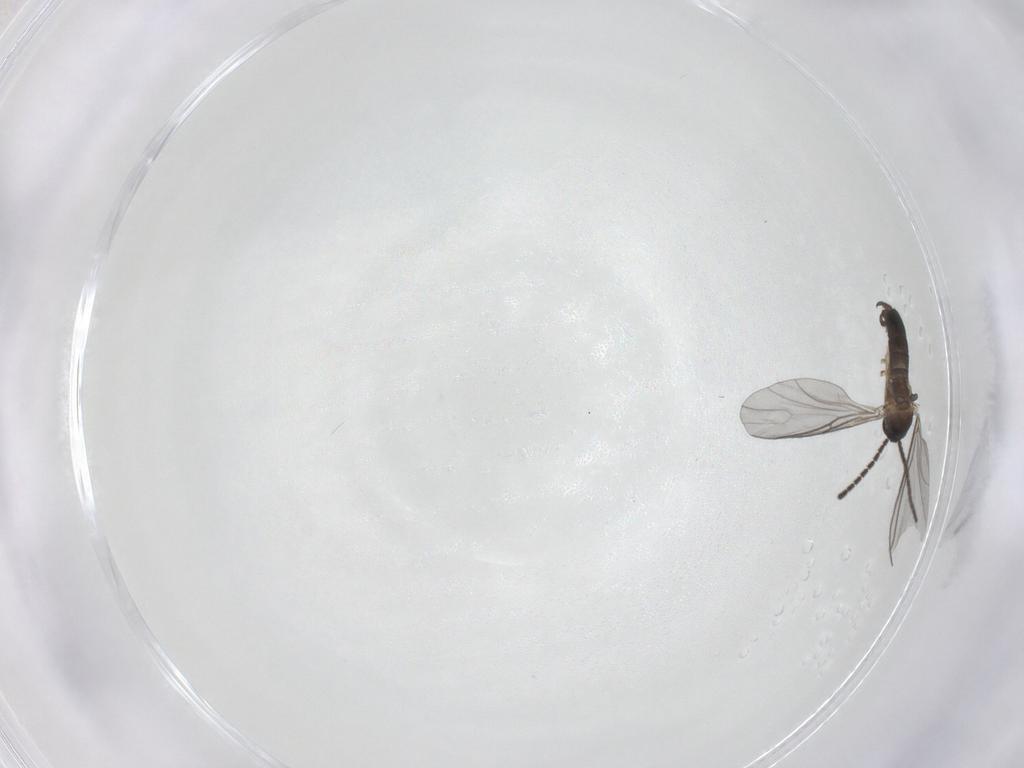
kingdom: Animalia
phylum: Arthropoda
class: Insecta
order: Diptera
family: Sciaridae
